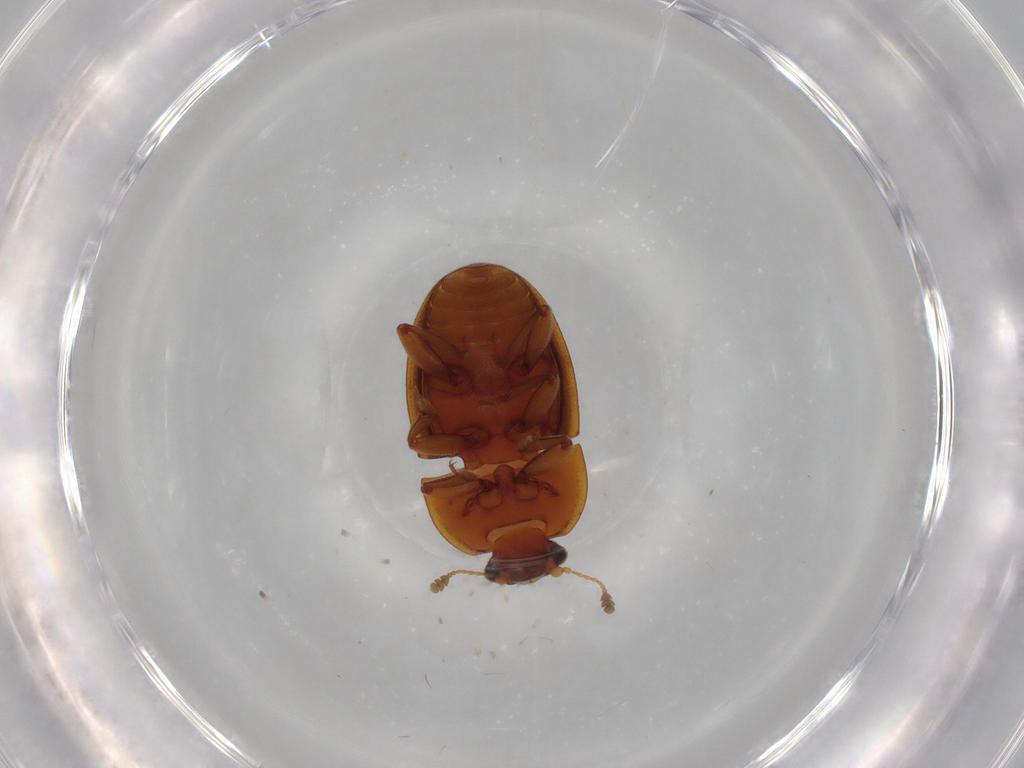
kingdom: Animalia
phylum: Arthropoda
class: Insecta
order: Coleoptera
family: Nitidulidae
